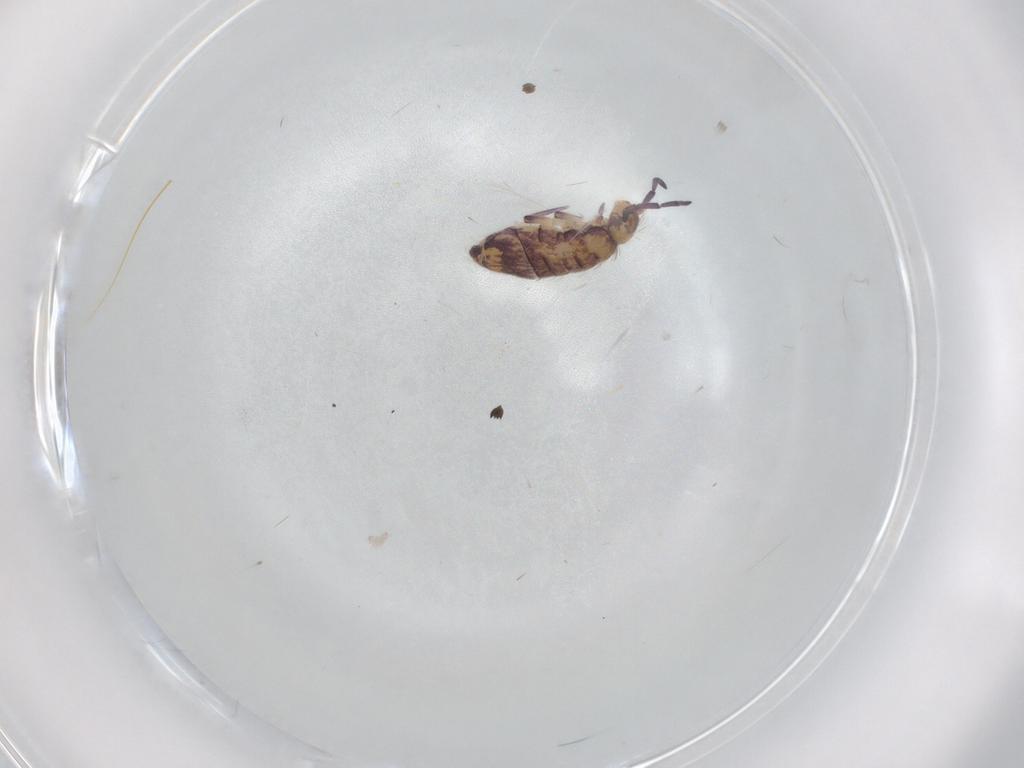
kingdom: Animalia
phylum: Arthropoda
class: Collembola
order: Entomobryomorpha
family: Entomobryidae
